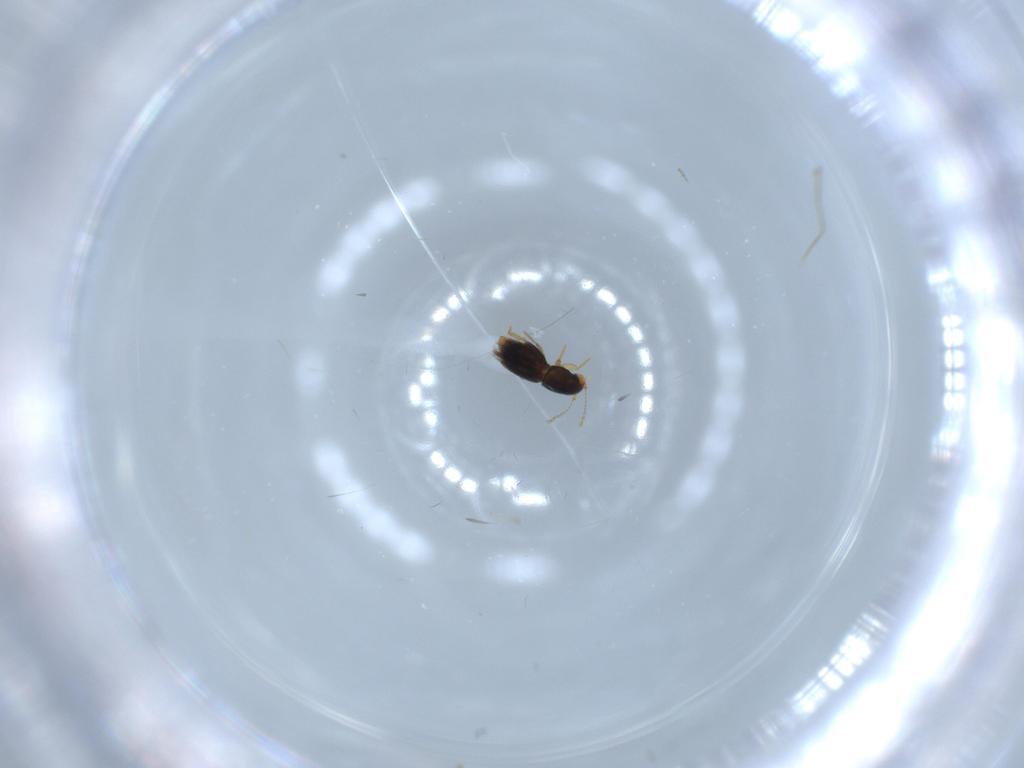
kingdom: Animalia
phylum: Arthropoda
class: Insecta
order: Coleoptera
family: Ptiliidae
